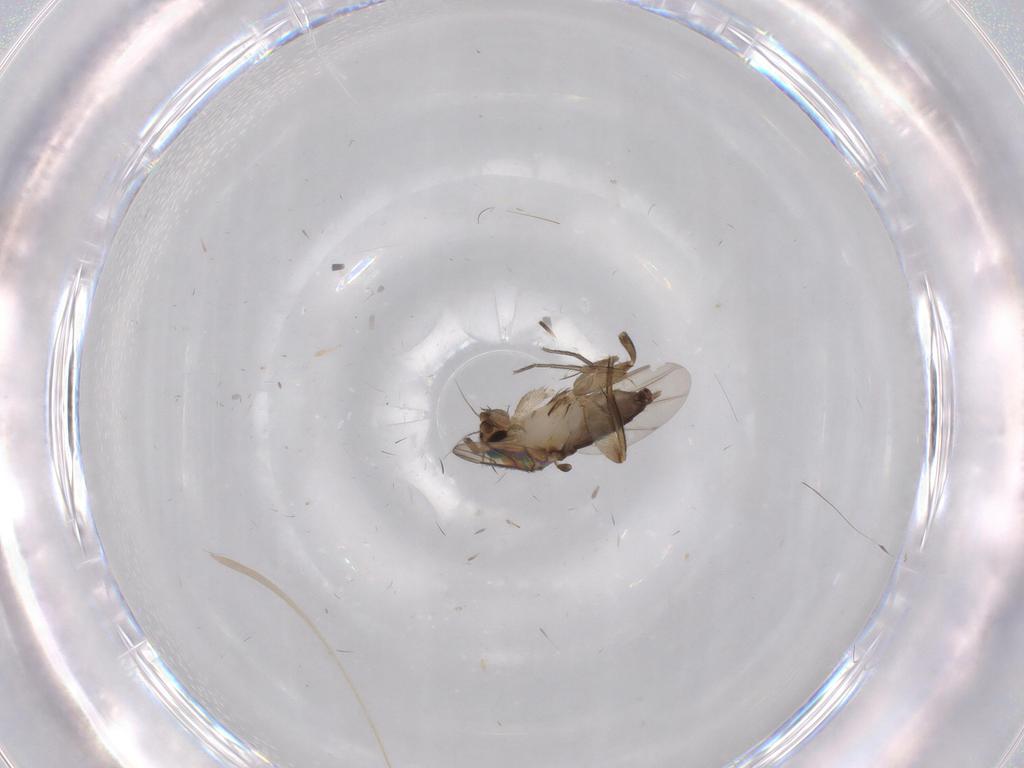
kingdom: Animalia
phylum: Arthropoda
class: Insecta
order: Diptera
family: Phoridae
